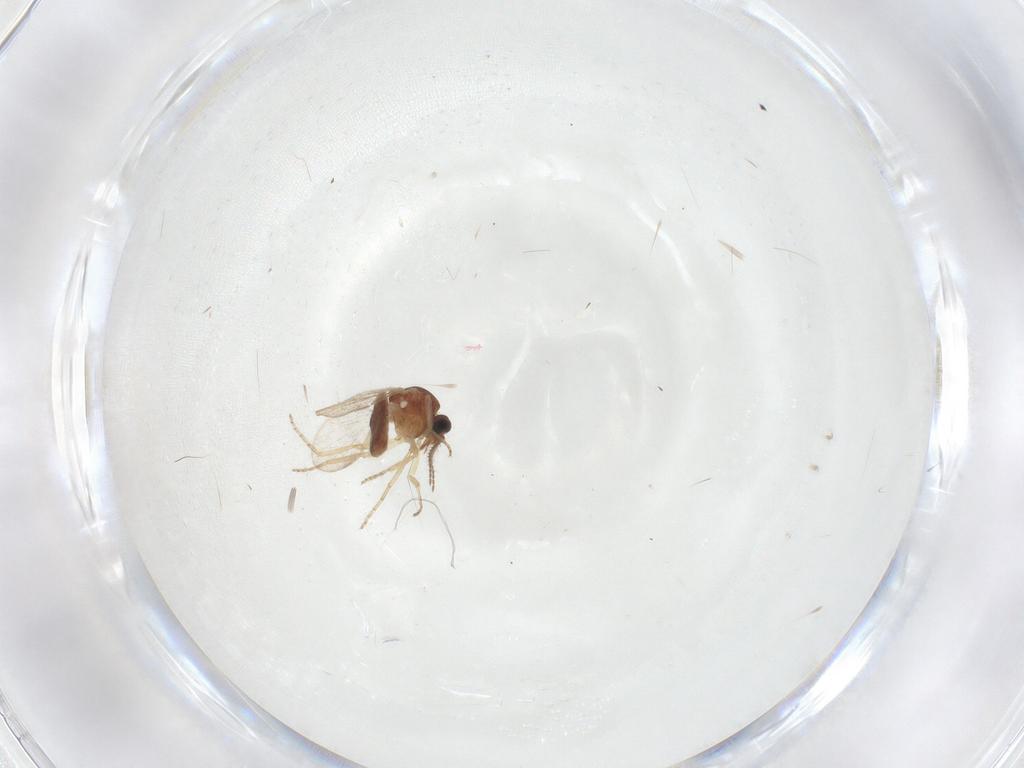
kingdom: Animalia
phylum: Arthropoda
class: Insecta
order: Diptera
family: Ceratopogonidae
